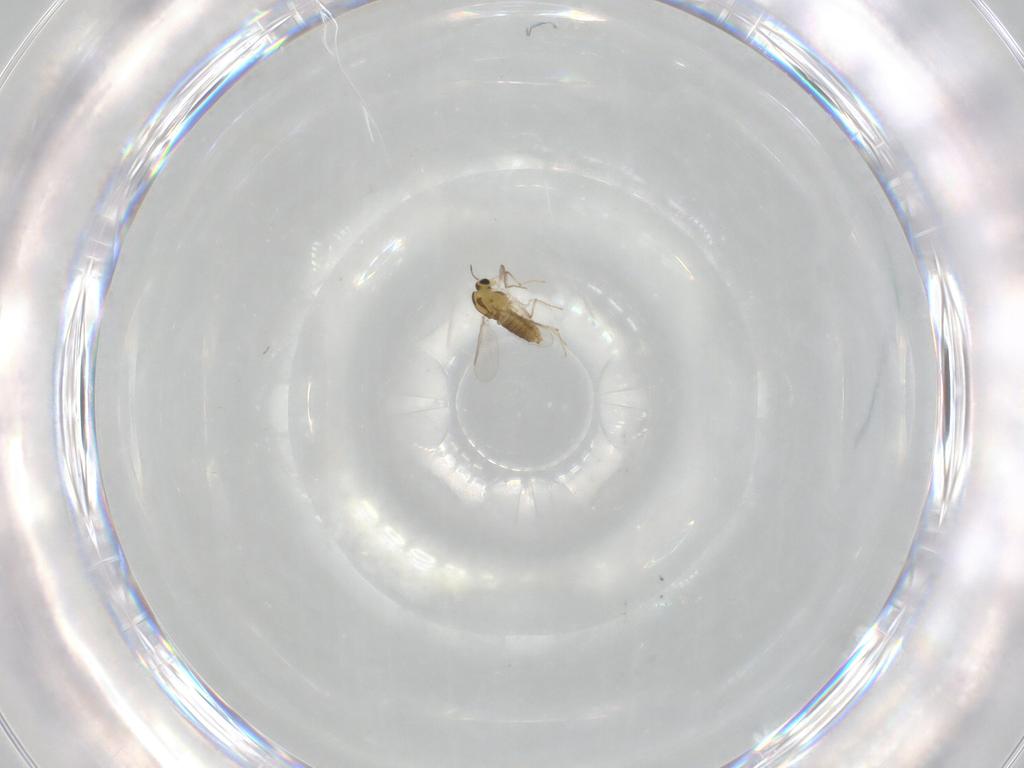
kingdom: Animalia
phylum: Arthropoda
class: Insecta
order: Diptera
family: Chironomidae
